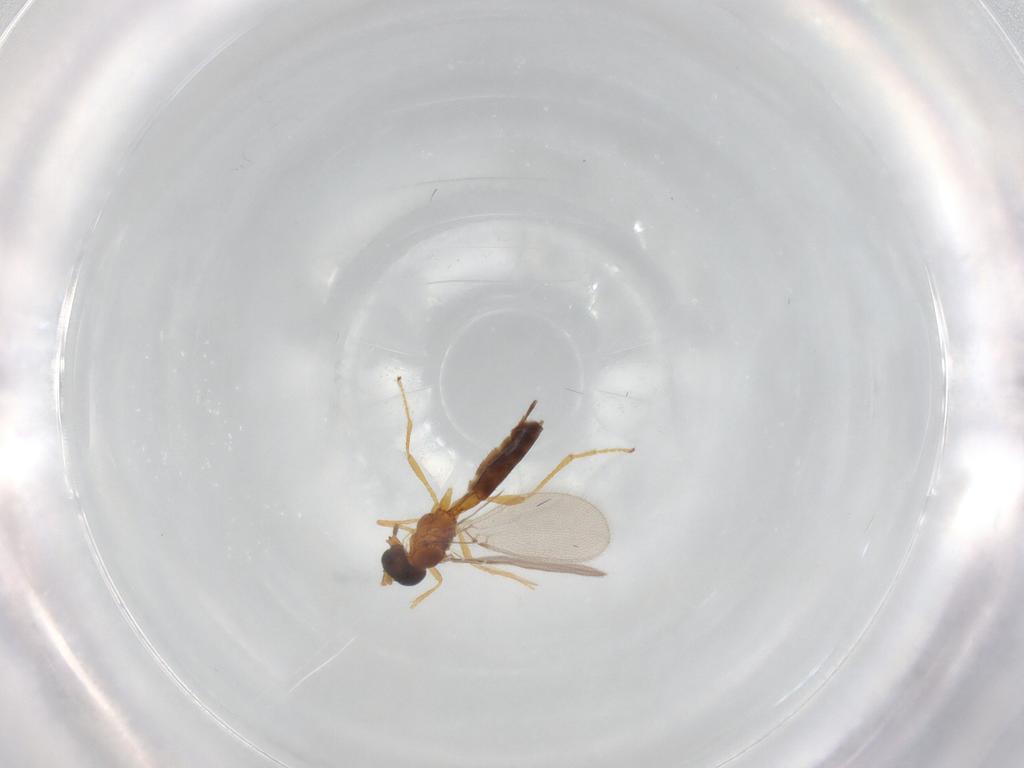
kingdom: Animalia
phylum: Arthropoda
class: Insecta
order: Hymenoptera
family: Braconidae
